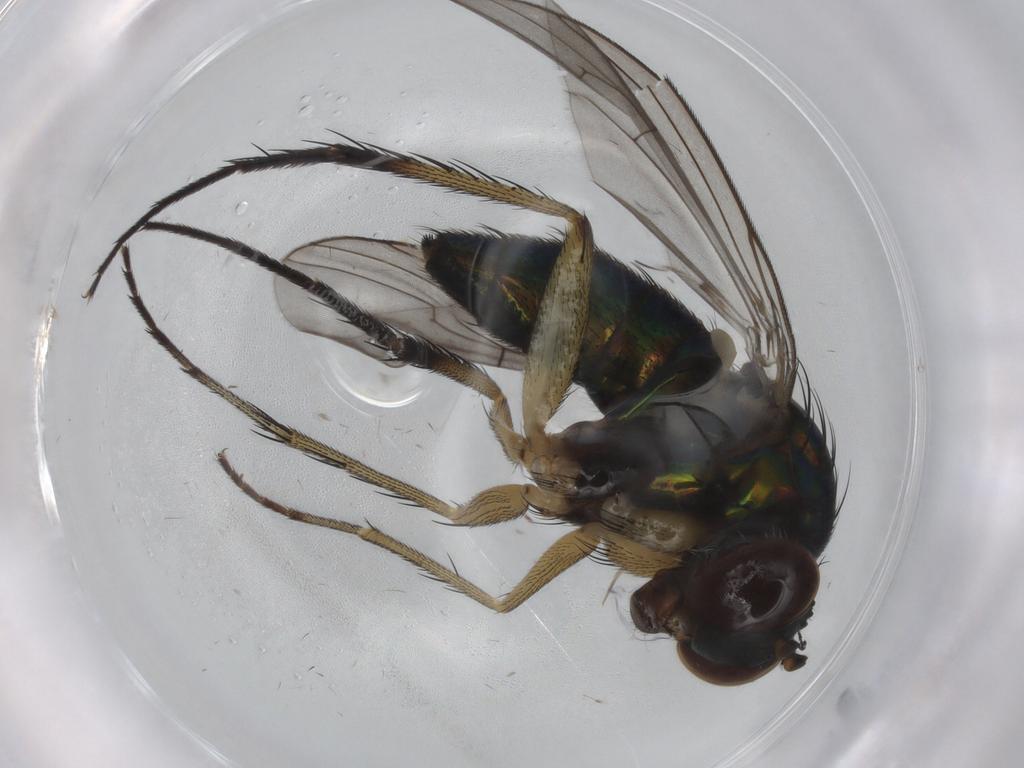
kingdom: Animalia
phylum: Arthropoda
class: Insecta
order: Diptera
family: Dolichopodidae
